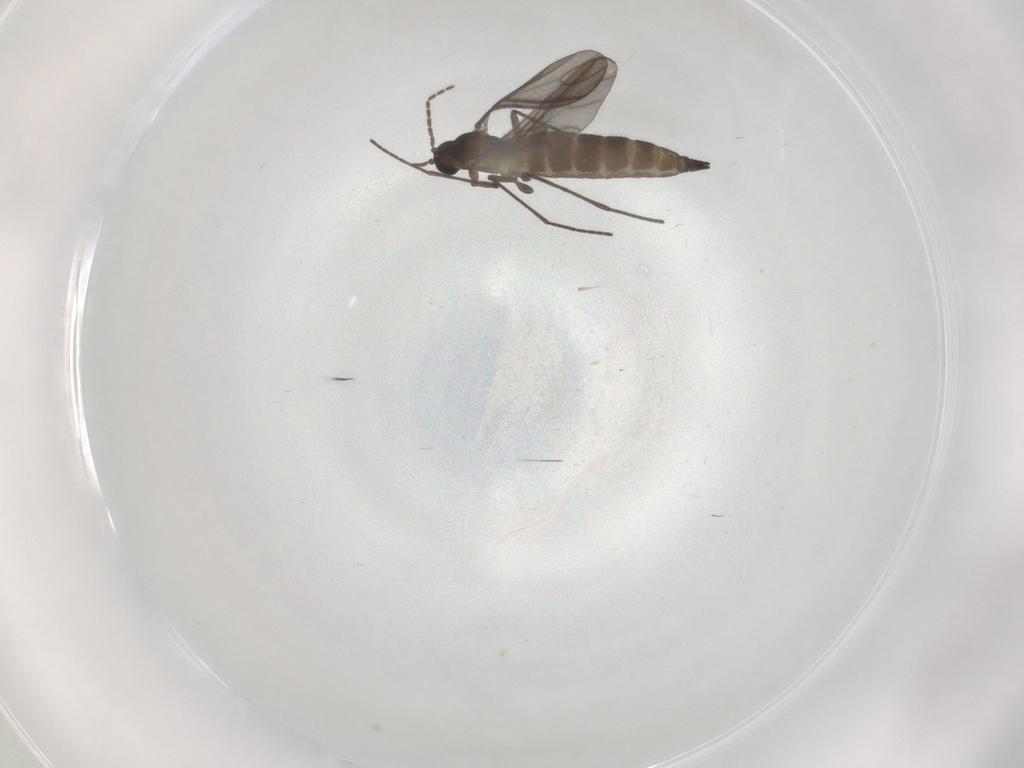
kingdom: Animalia
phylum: Arthropoda
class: Insecta
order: Diptera
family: Sciaridae
